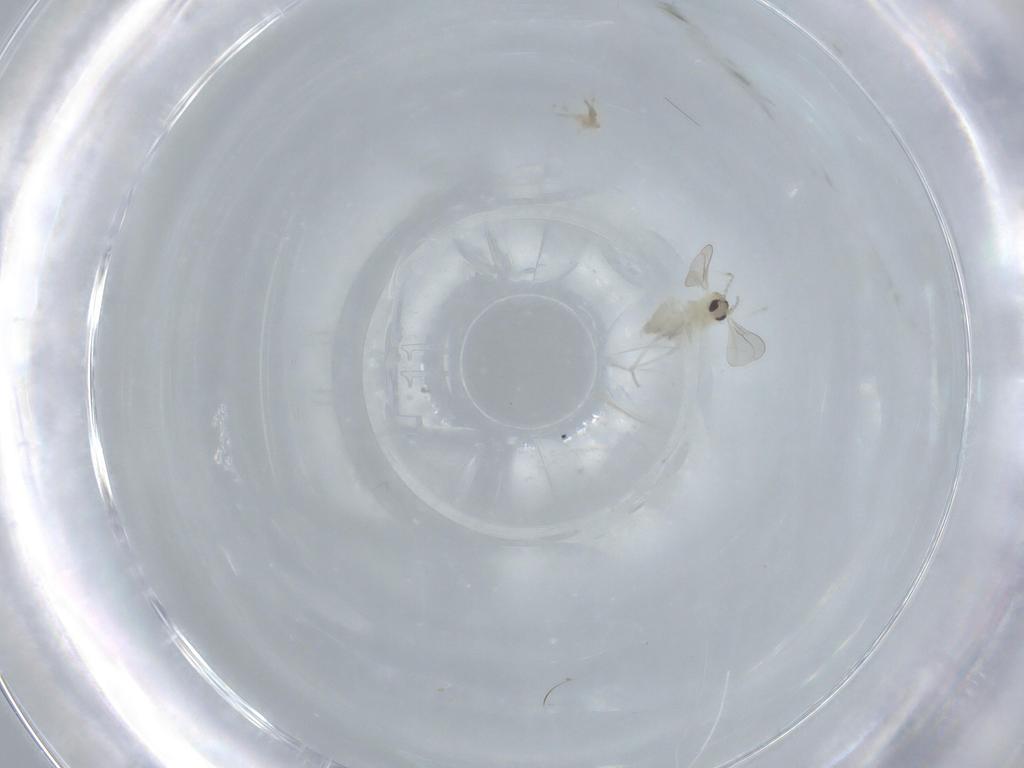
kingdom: Animalia
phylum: Arthropoda
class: Insecta
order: Diptera
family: Cecidomyiidae
